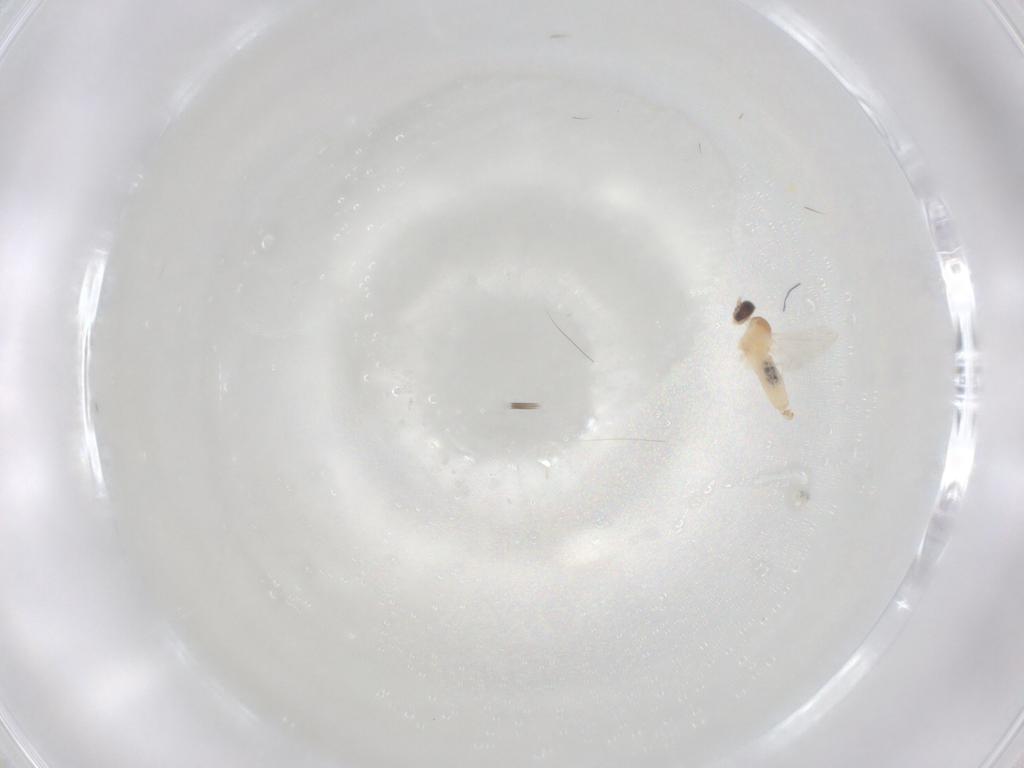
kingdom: Animalia
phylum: Arthropoda
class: Insecta
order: Diptera
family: Cecidomyiidae
